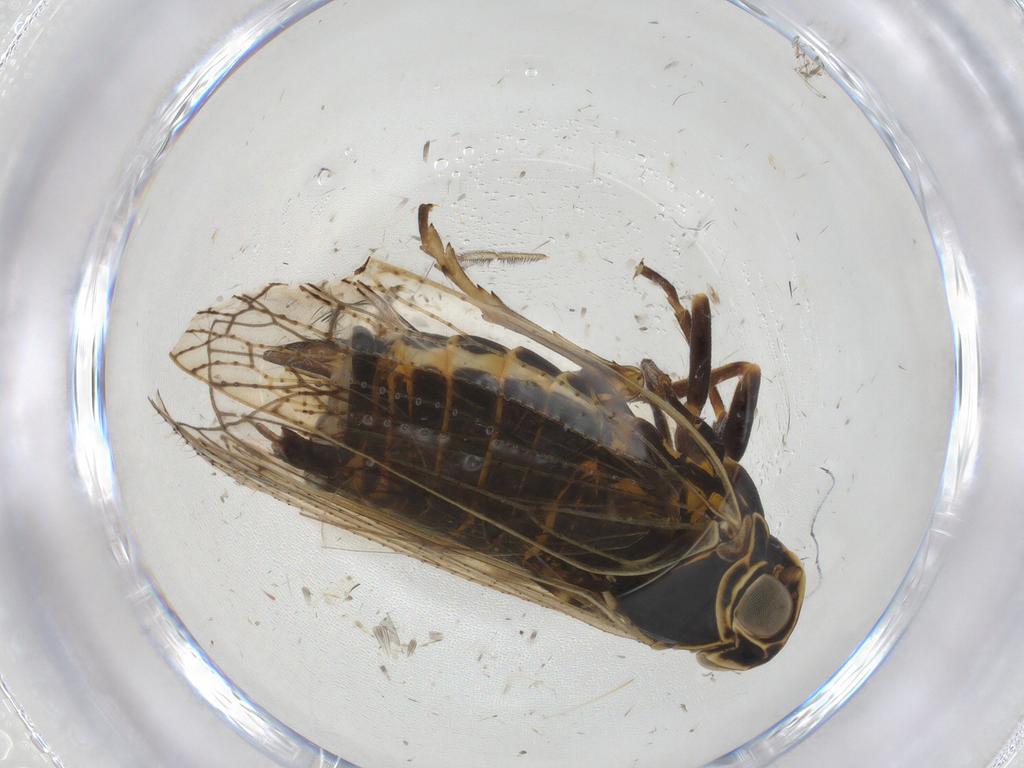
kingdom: Animalia
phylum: Arthropoda
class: Insecta
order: Hemiptera
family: Cixiidae
